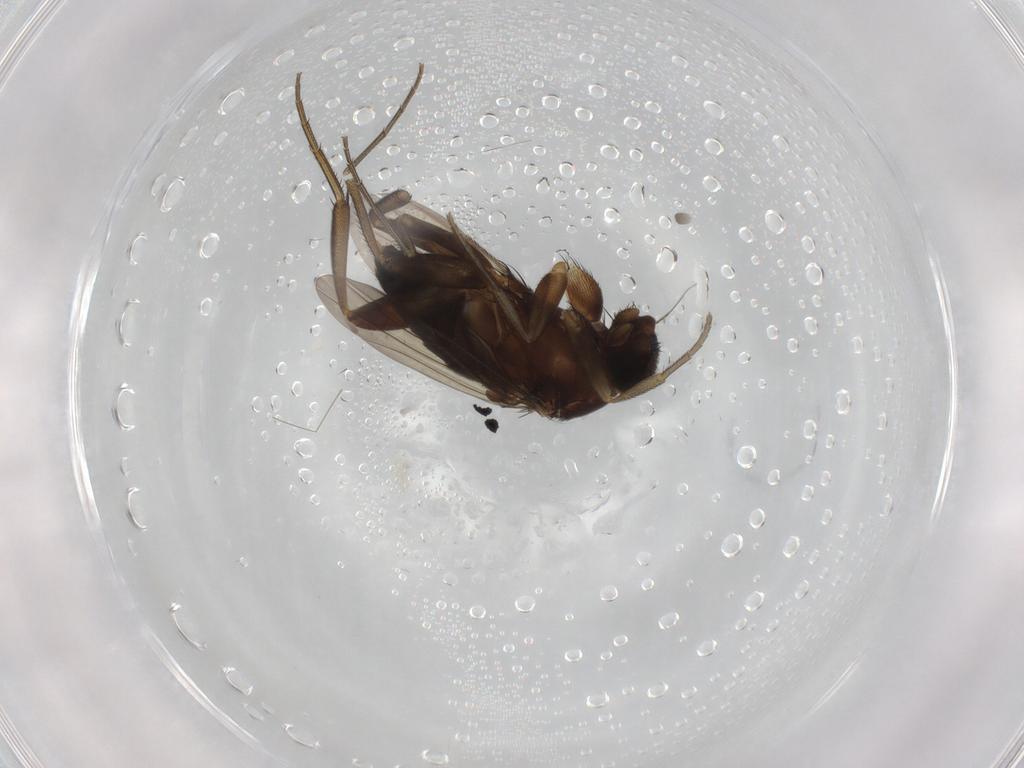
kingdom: Animalia
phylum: Arthropoda
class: Insecta
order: Diptera
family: Phoridae
